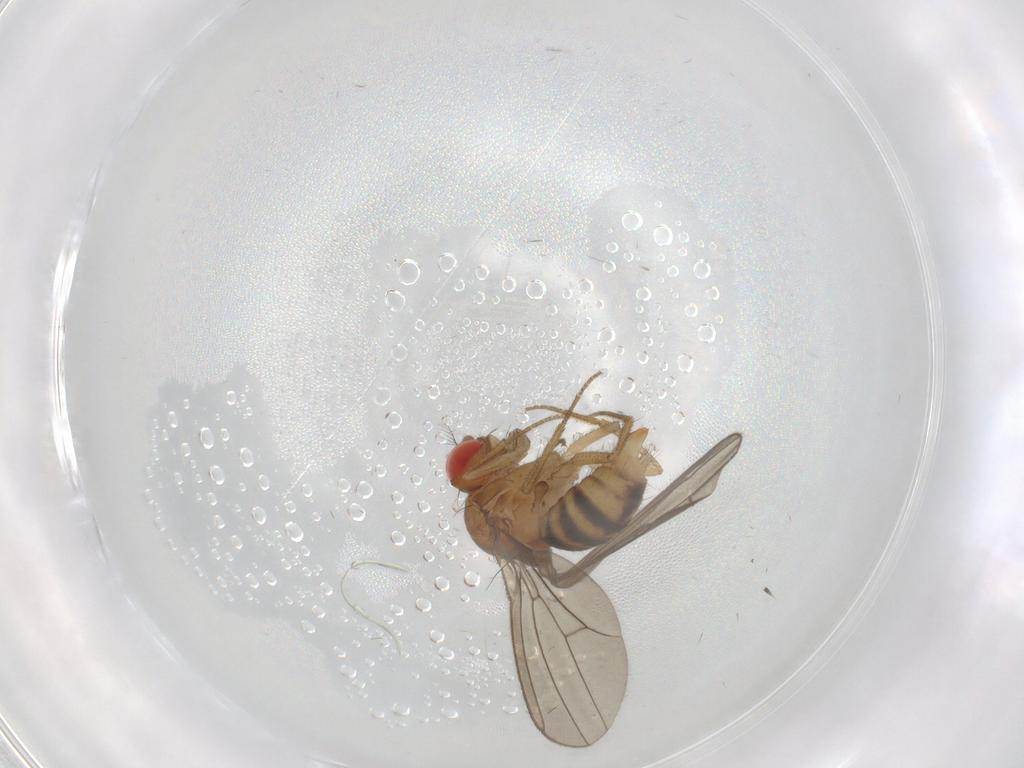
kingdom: Animalia
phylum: Arthropoda
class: Insecta
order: Diptera
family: Drosophilidae
